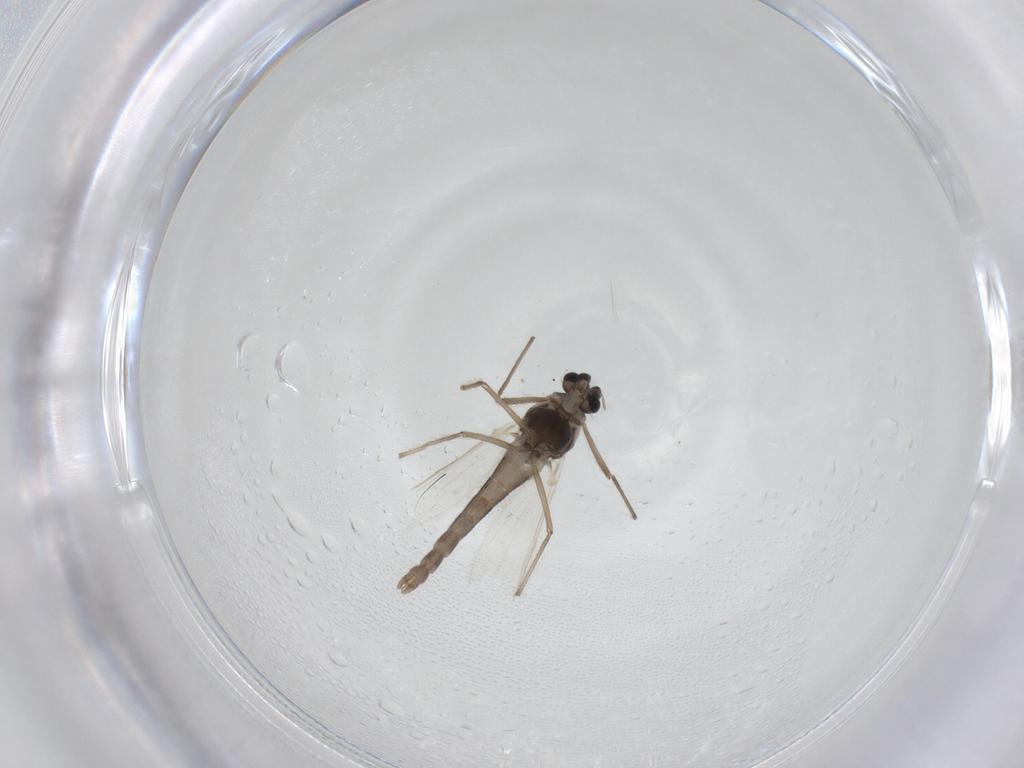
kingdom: Animalia
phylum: Arthropoda
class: Insecta
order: Diptera
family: Chironomidae
